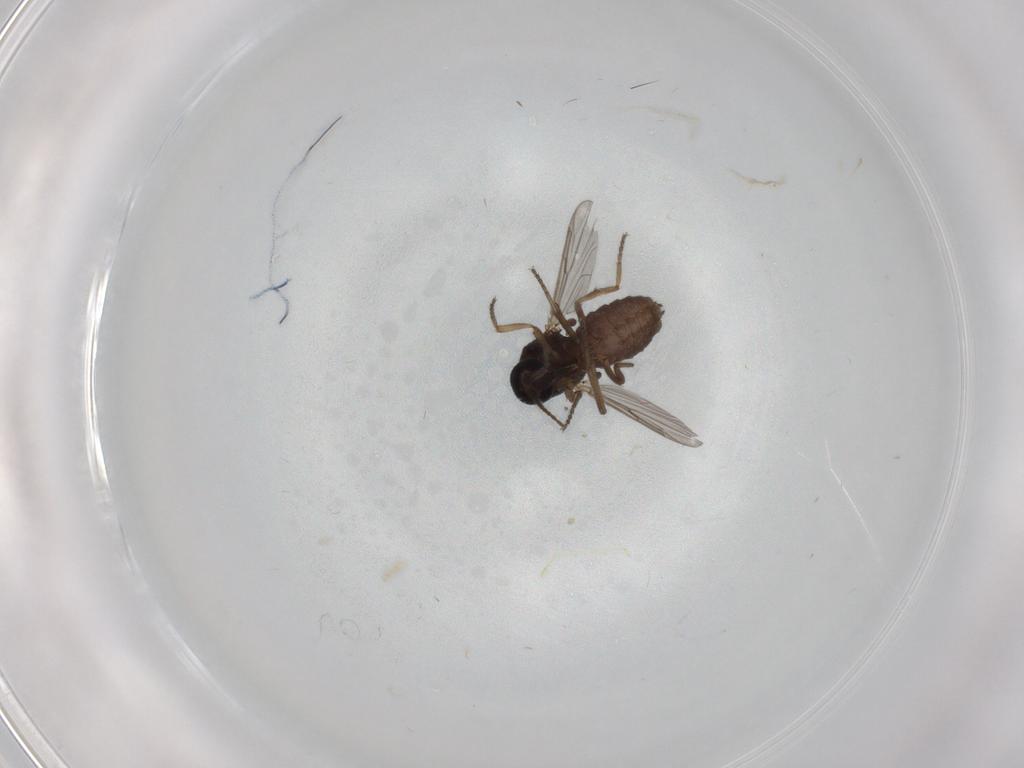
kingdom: Animalia
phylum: Arthropoda
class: Insecta
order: Diptera
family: Ceratopogonidae
